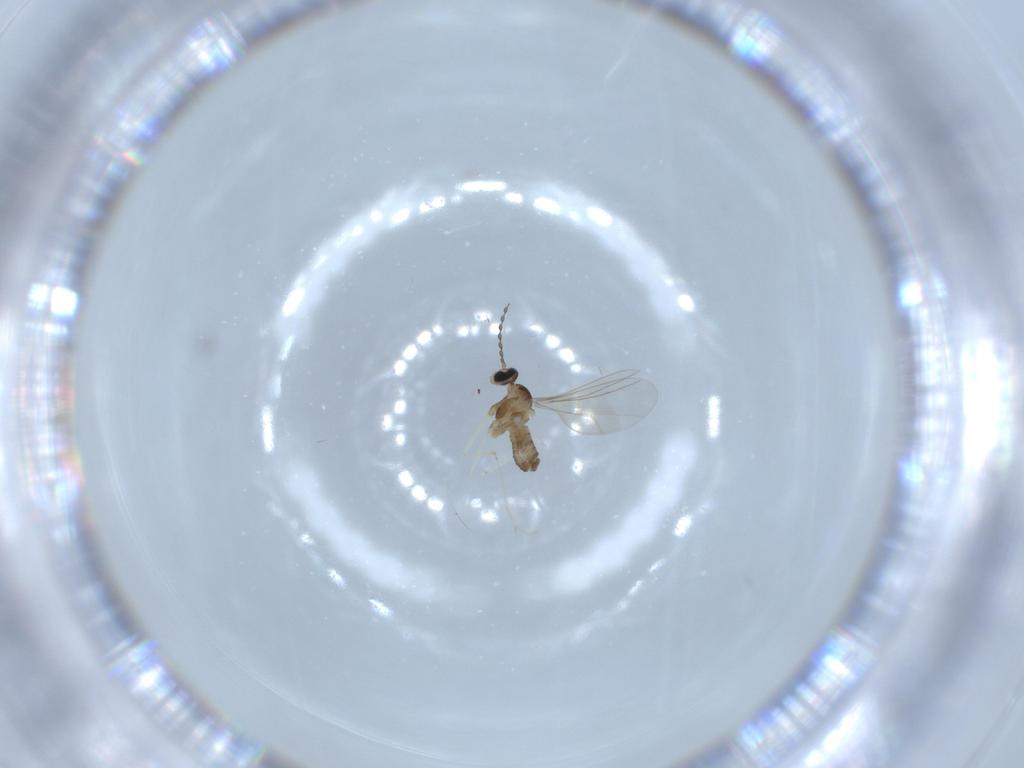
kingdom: Animalia
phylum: Arthropoda
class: Insecta
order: Diptera
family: Cecidomyiidae
